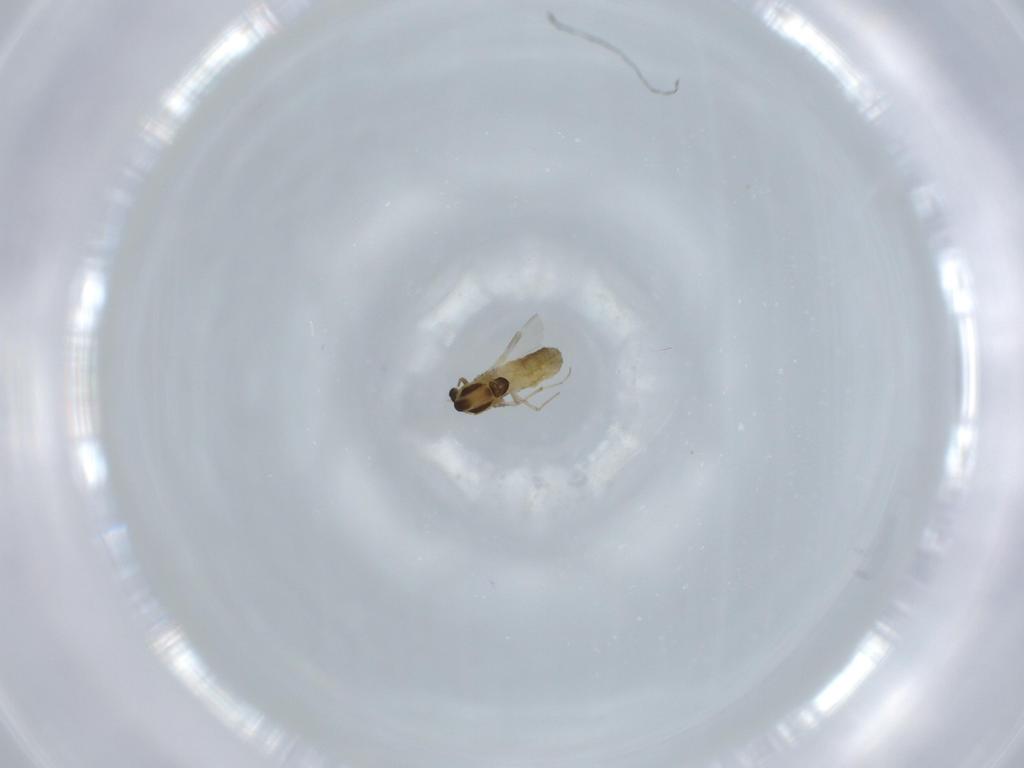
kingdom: Animalia
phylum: Arthropoda
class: Insecta
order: Diptera
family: Chironomidae
